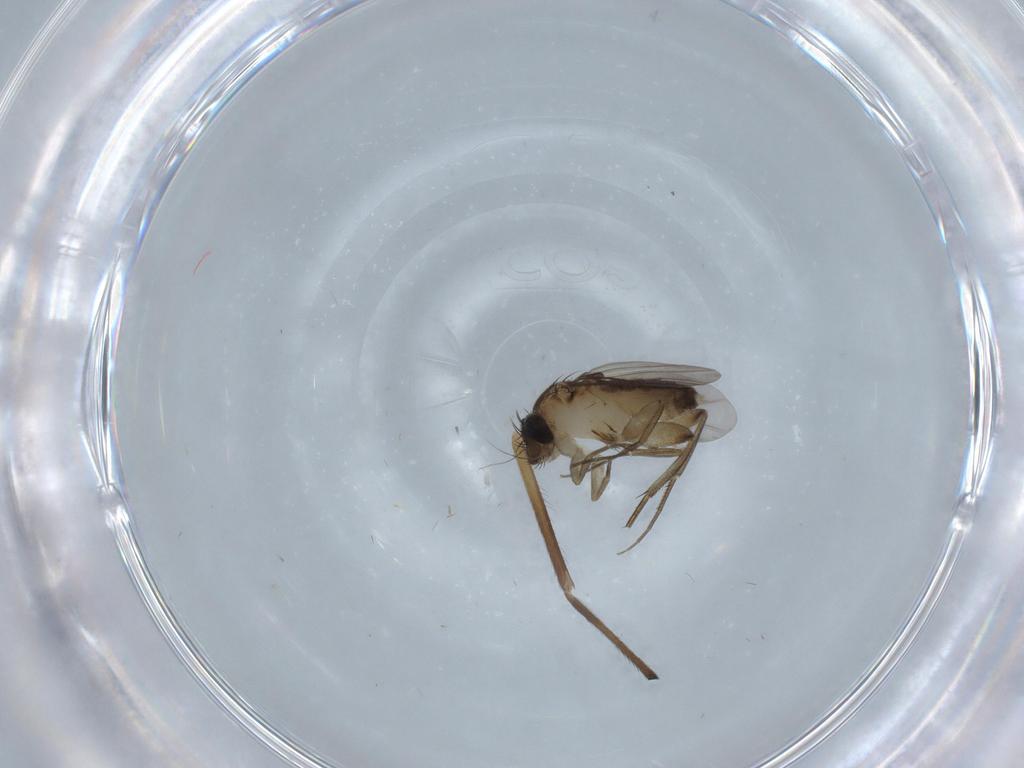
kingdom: Animalia
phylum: Arthropoda
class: Insecta
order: Diptera
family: Phoridae
